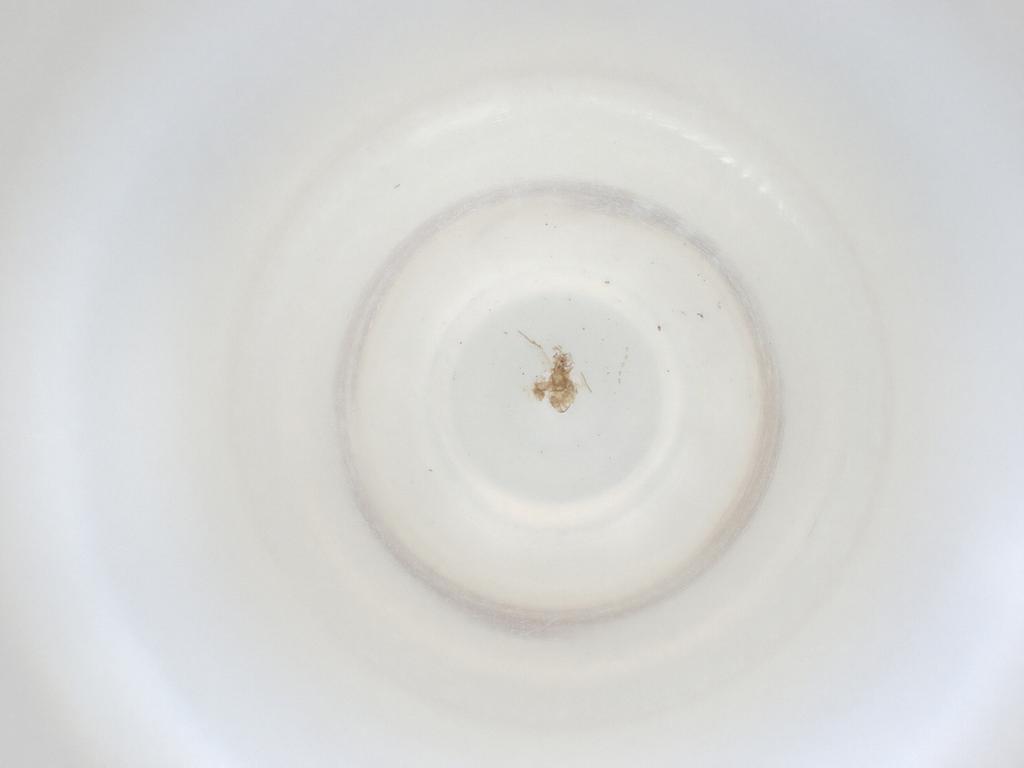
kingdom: Animalia
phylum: Arthropoda
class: Insecta
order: Diptera
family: Cecidomyiidae
